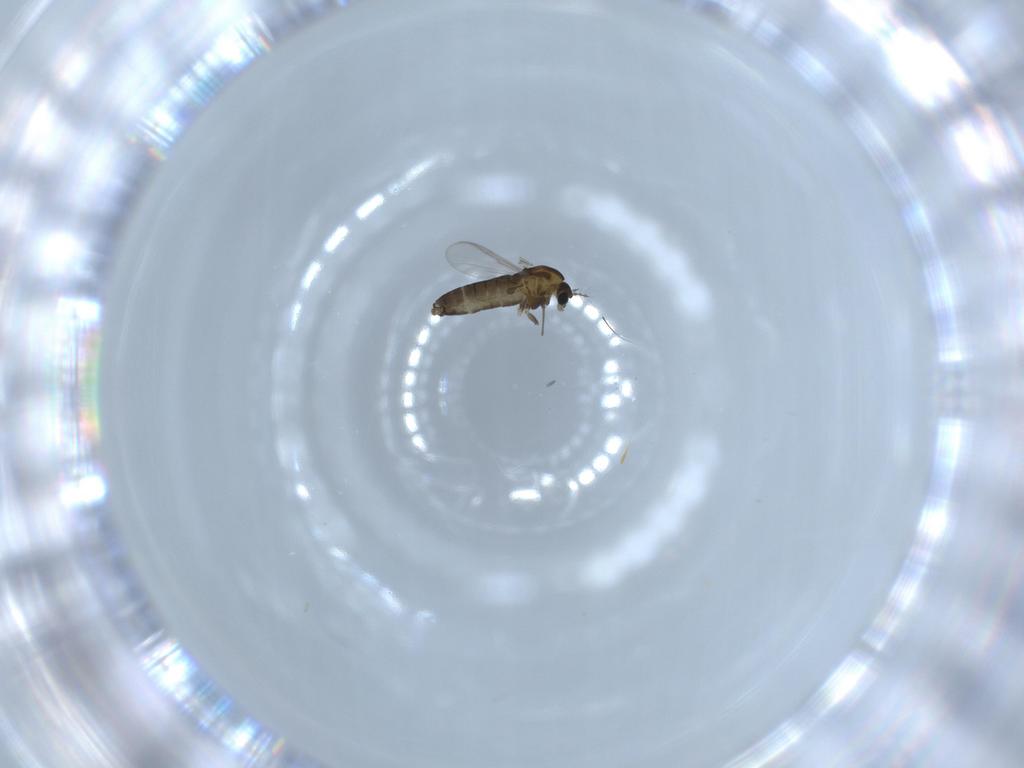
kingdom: Animalia
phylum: Arthropoda
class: Insecta
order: Diptera
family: Chironomidae
